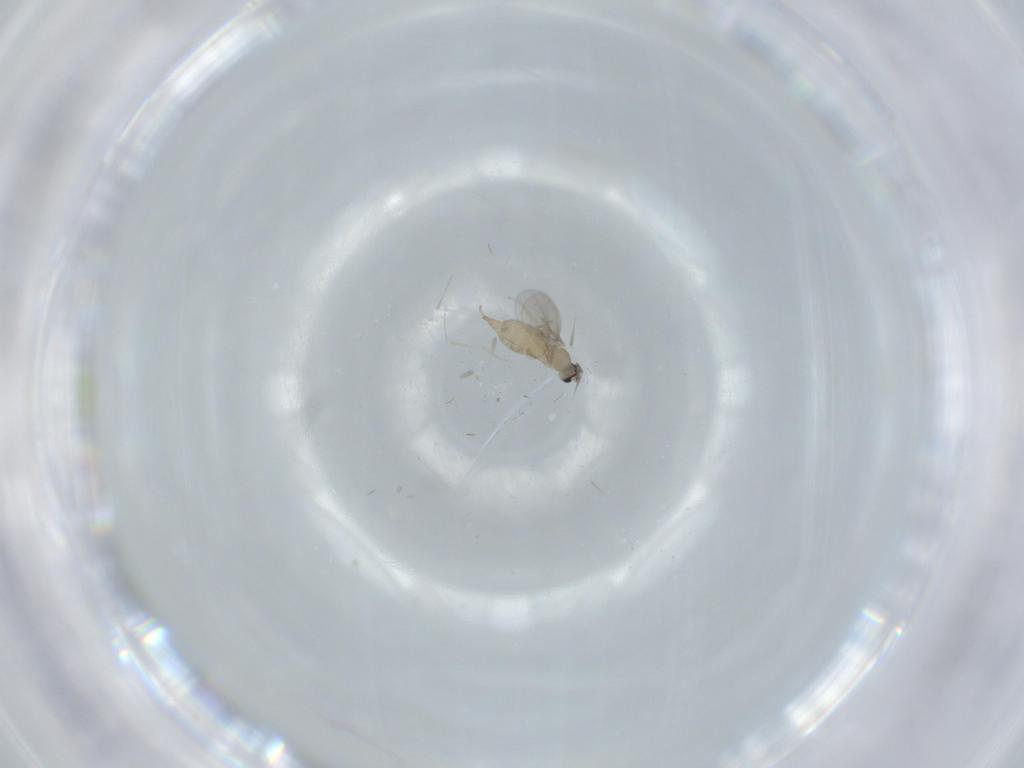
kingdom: Animalia
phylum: Arthropoda
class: Insecta
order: Diptera
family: Cecidomyiidae
